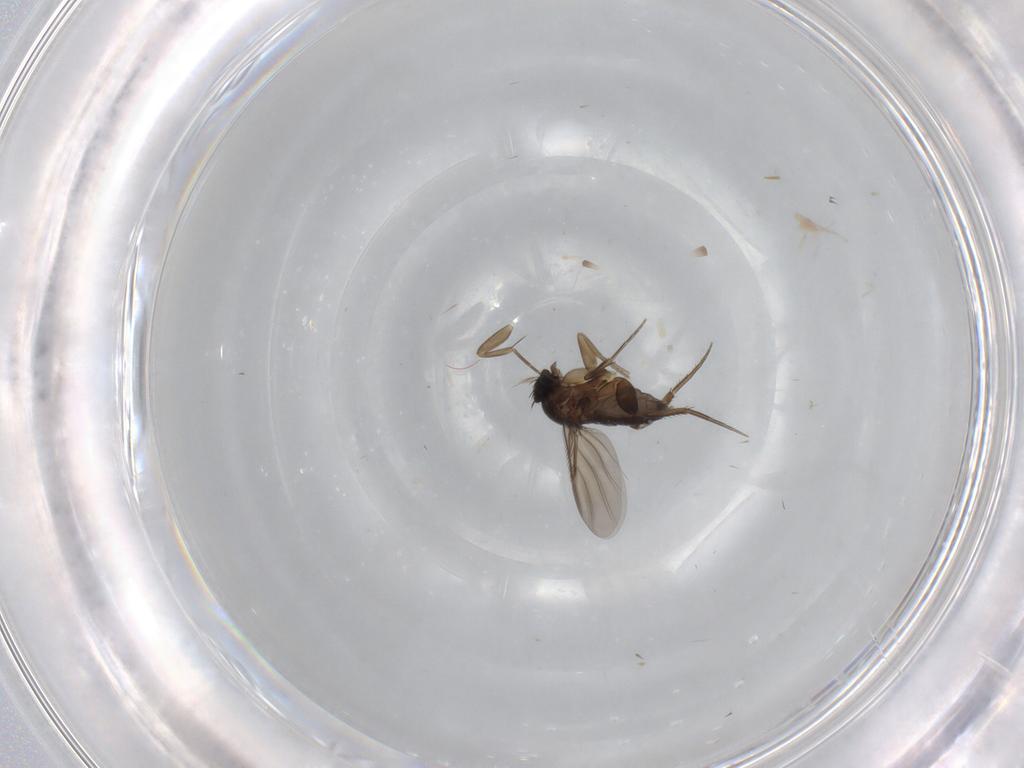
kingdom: Animalia
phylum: Arthropoda
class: Insecta
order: Diptera
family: Phoridae
